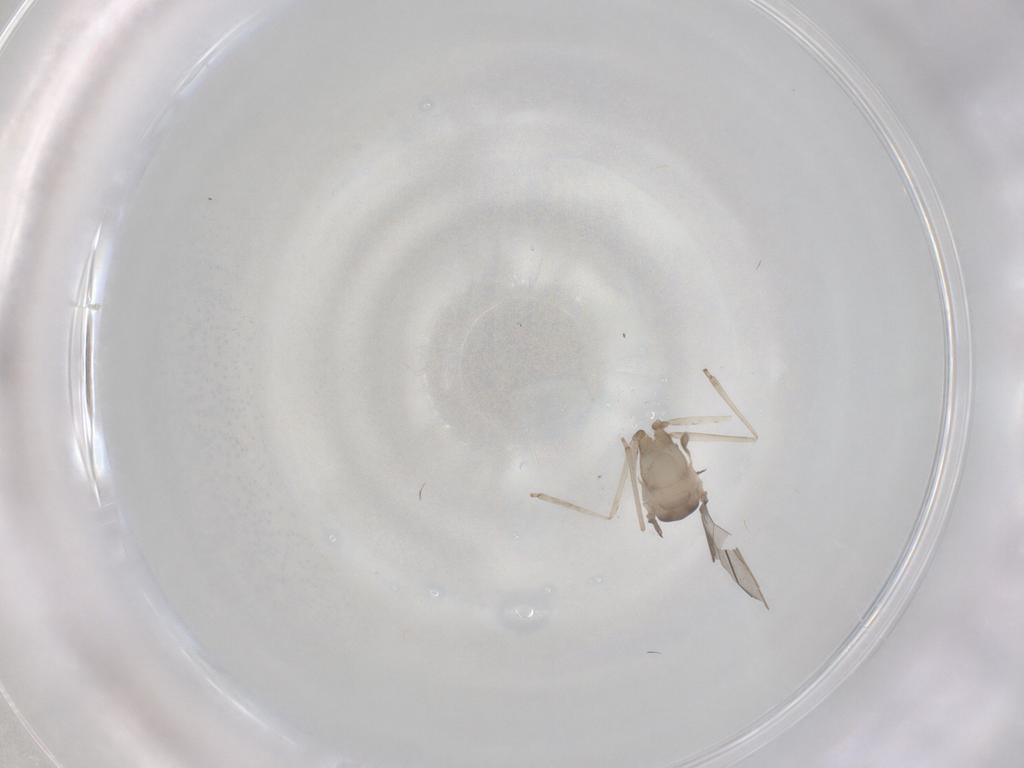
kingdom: Animalia
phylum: Arthropoda
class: Insecta
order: Diptera
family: Cecidomyiidae
